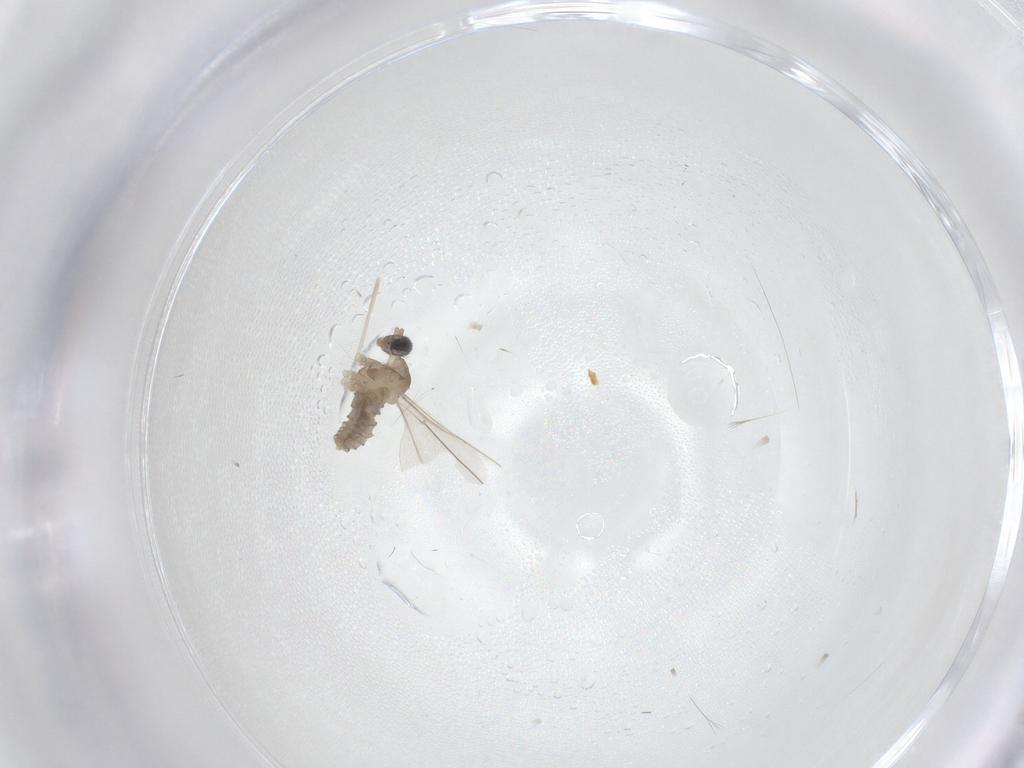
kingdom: Animalia
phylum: Arthropoda
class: Insecta
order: Diptera
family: Cecidomyiidae
